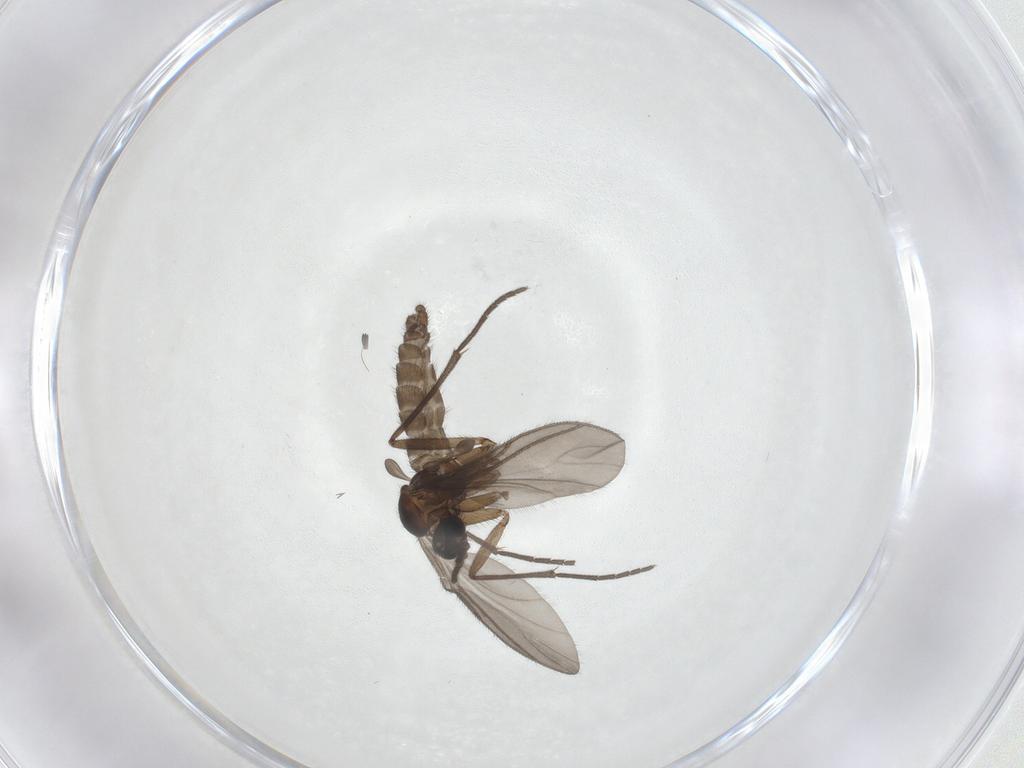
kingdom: Animalia
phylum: Arthropoda
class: Insecta
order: Diptera
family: Sciaridae
